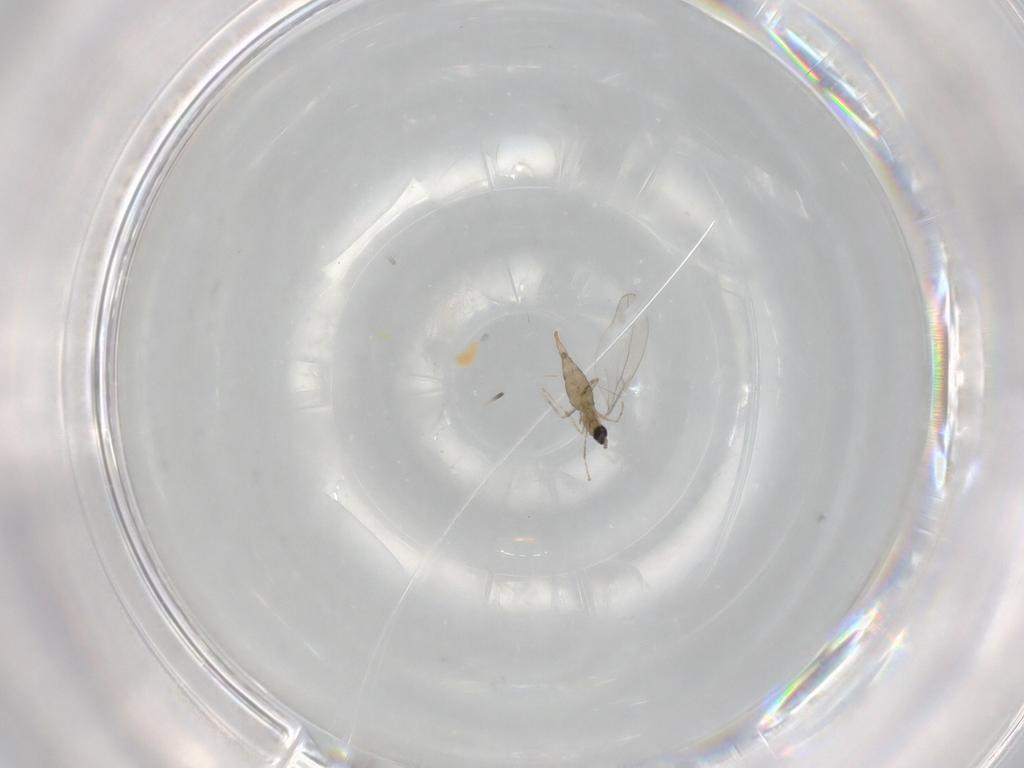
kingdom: Animalia
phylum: Arthropoda
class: Insecta
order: Diptera
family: Cecidomyiidae
